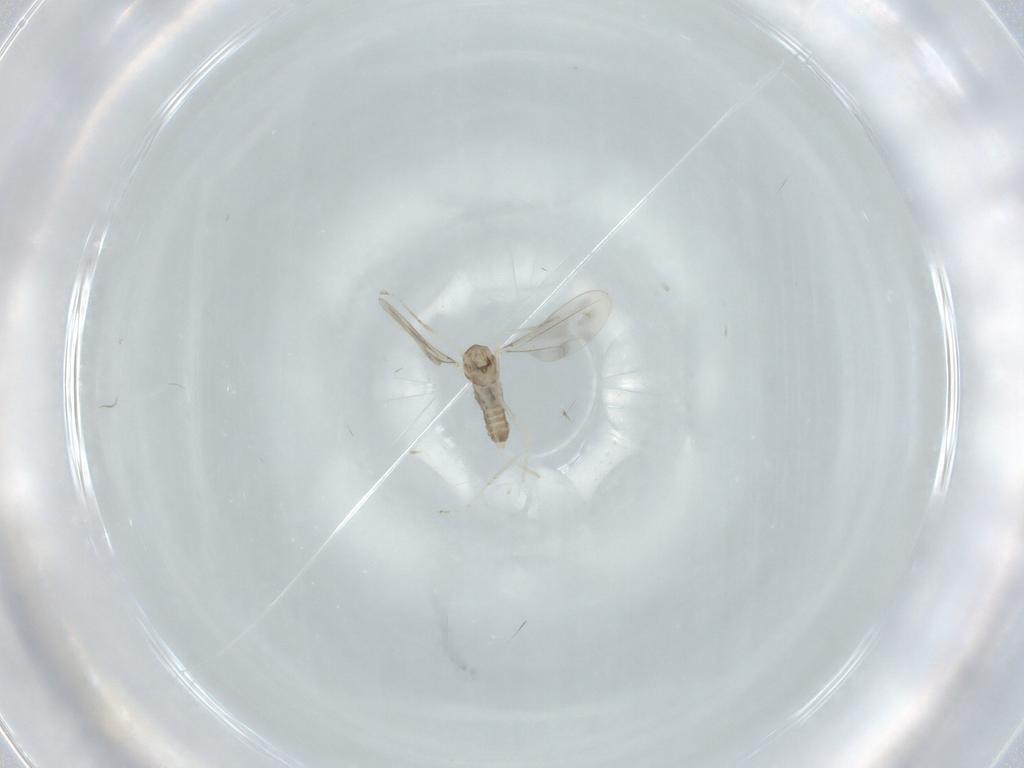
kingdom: Animalia
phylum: Arthropoda
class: Insecta
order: Diptera
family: Cecidomyiidae
